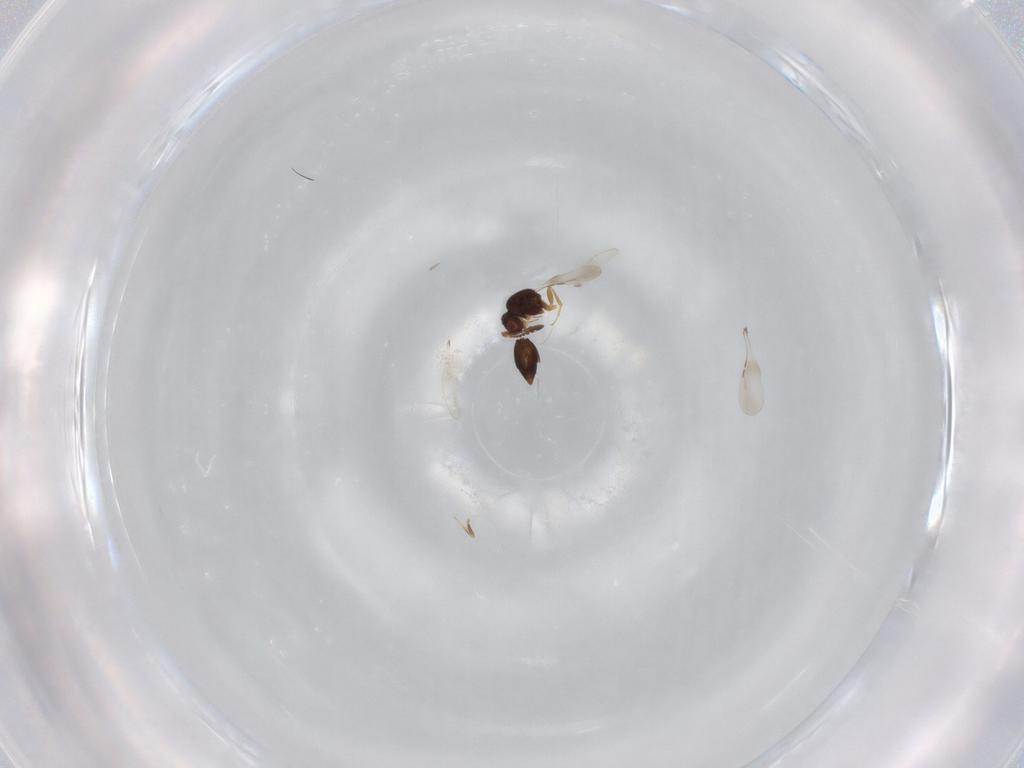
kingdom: Animalia
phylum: Arthropoda
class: Insecta
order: Hymenoptera
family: Ceraphronidae
